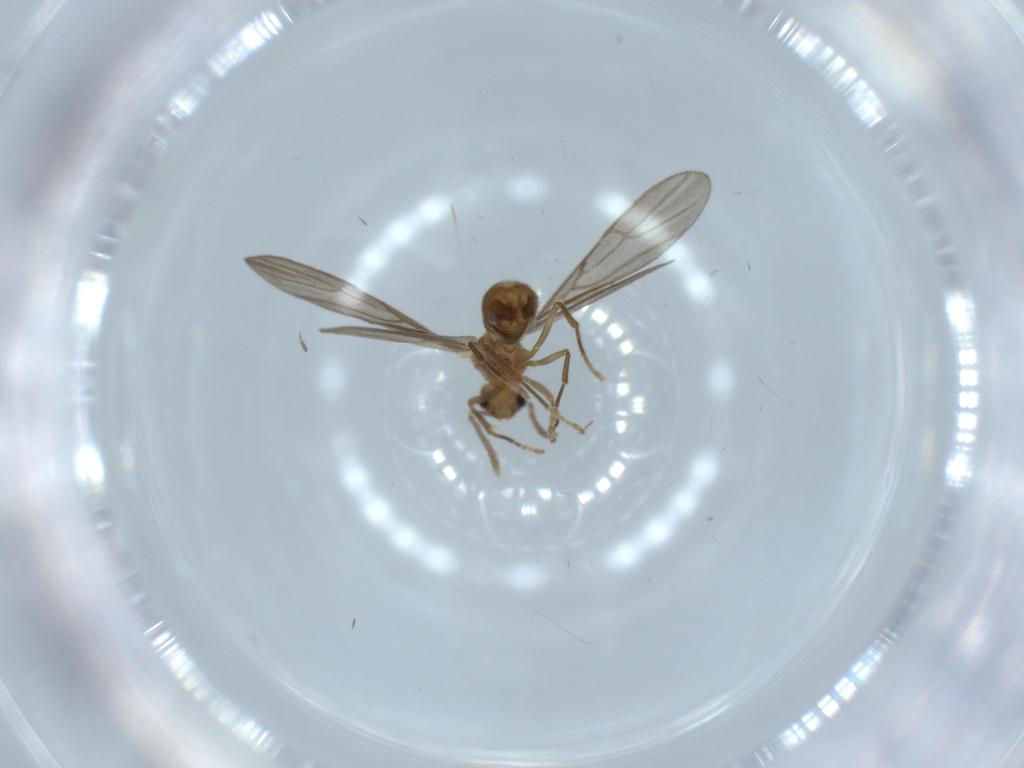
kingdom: Animalia
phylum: Arthropoda
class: Insecta
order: Hymenoptera
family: Formicidae
